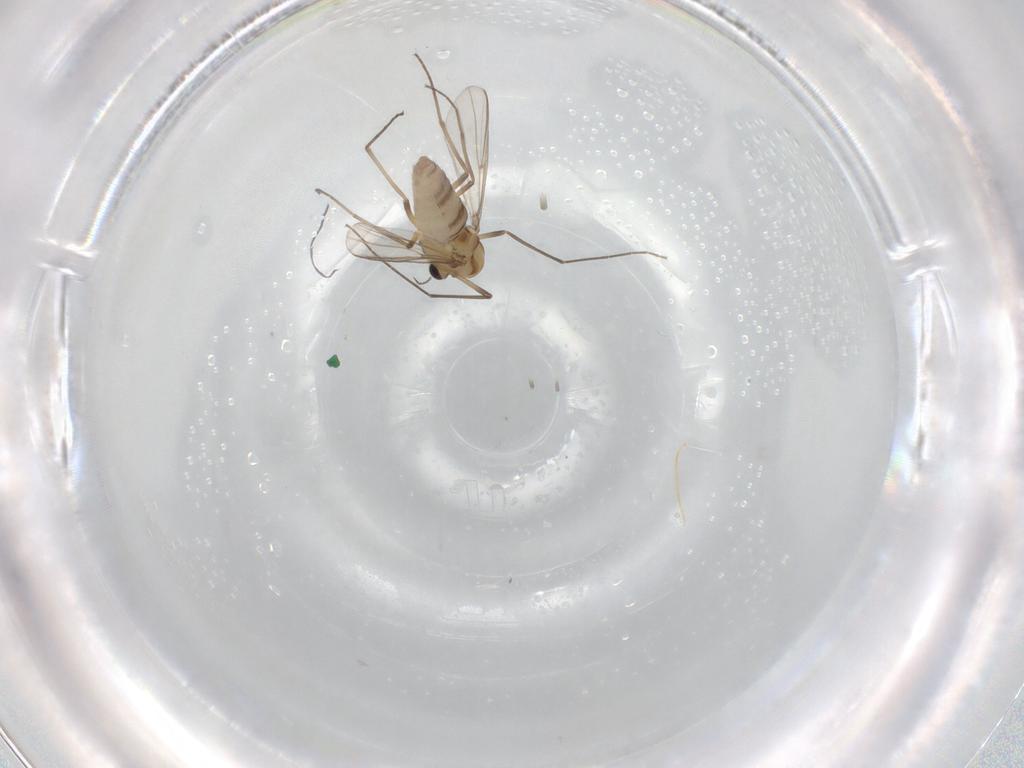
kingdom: Animalia
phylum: Arthropoda
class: Insecta
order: Diptera
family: Chironomidae
